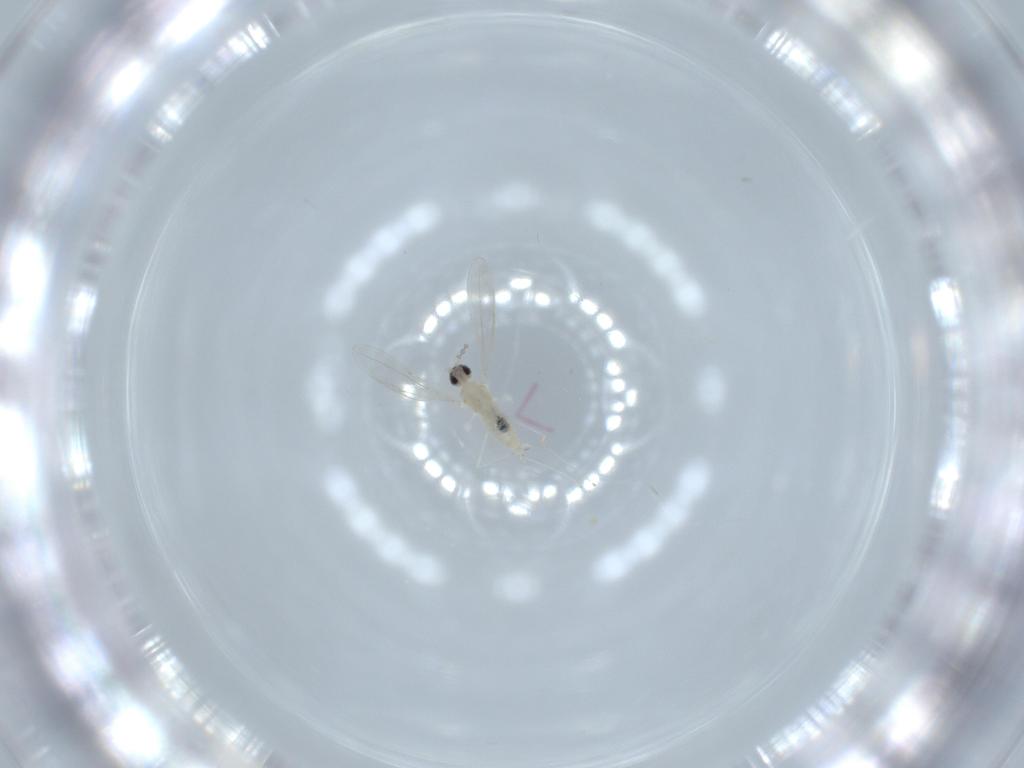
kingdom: Animalia
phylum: Arthropoda
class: Insecta
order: Diptera
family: Cecidomyiidae
